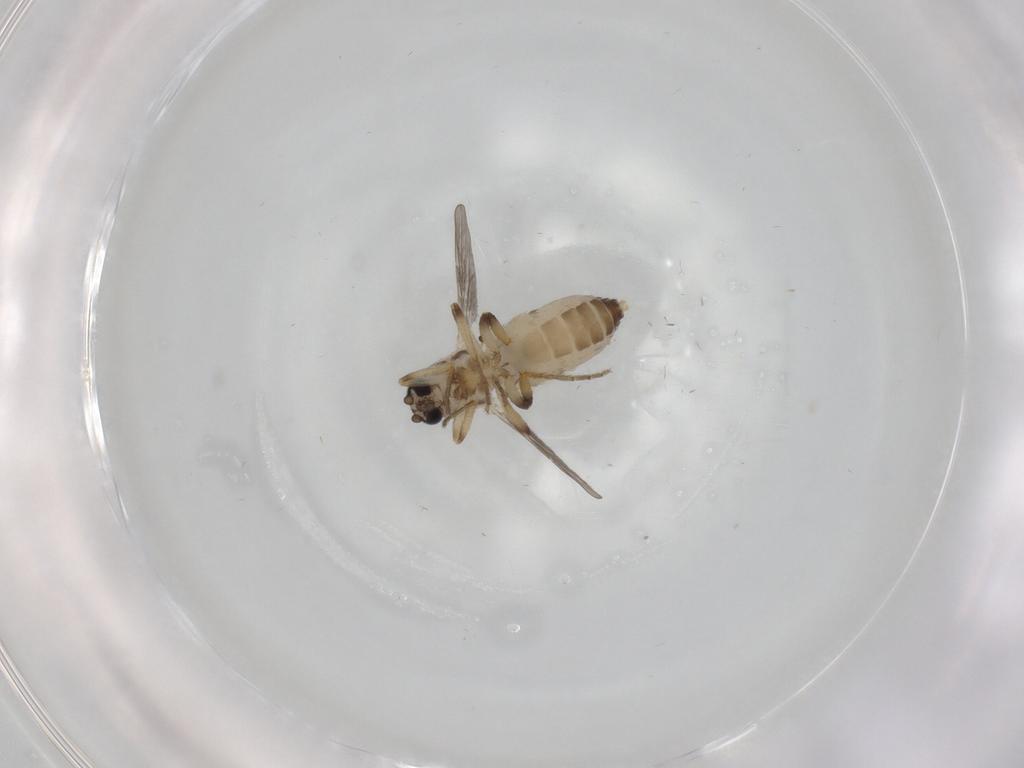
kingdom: Animalia
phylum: Arthropoda
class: Insecta
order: Diptera
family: Ceratopogonidae
